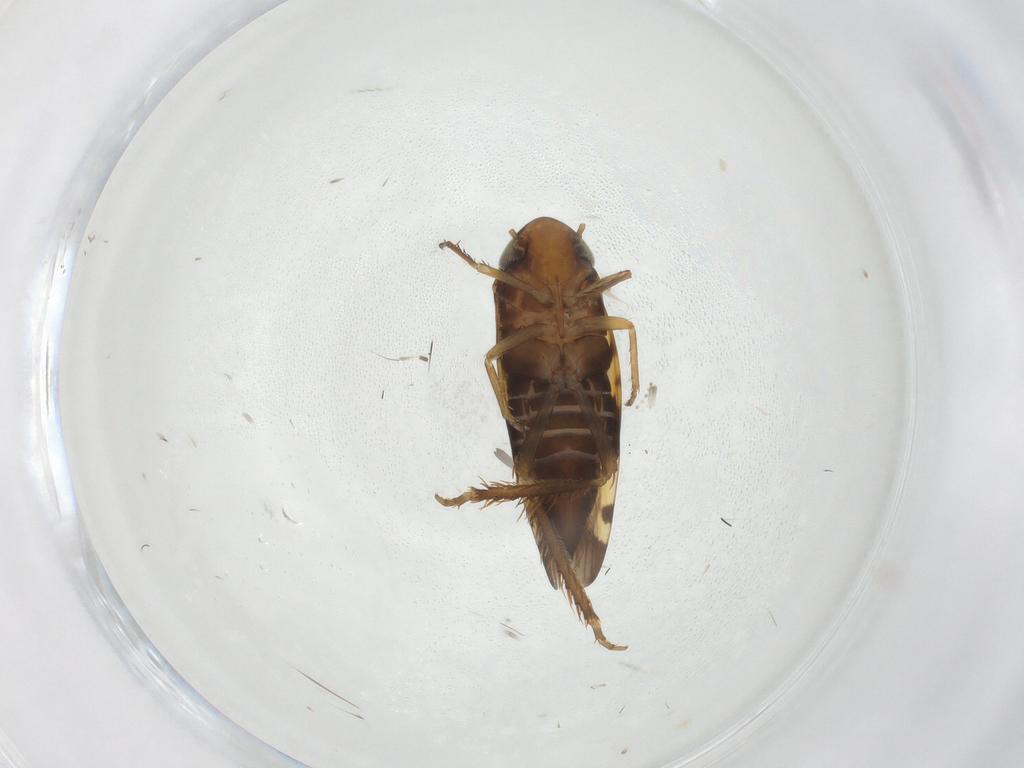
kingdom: Animalia
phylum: Arthropoda
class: Insecta
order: Hemiptera
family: Cicadellidae
